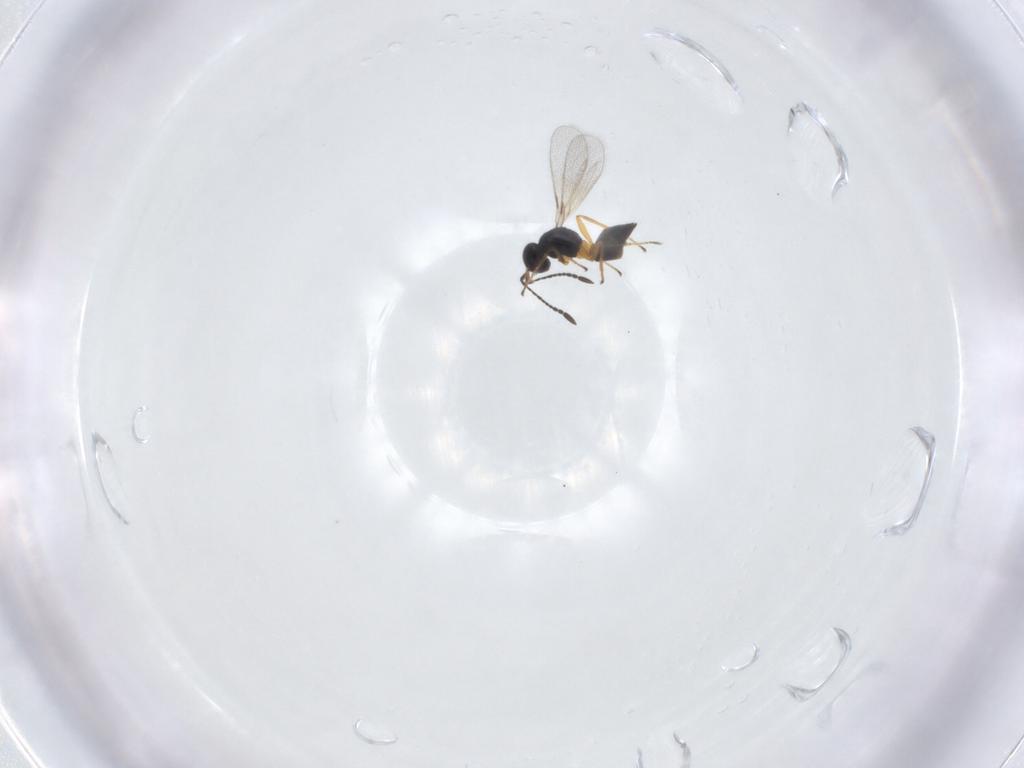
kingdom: Animalia
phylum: Arthropoda
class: Insecta
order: Hymenoptera
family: Mymaridae
